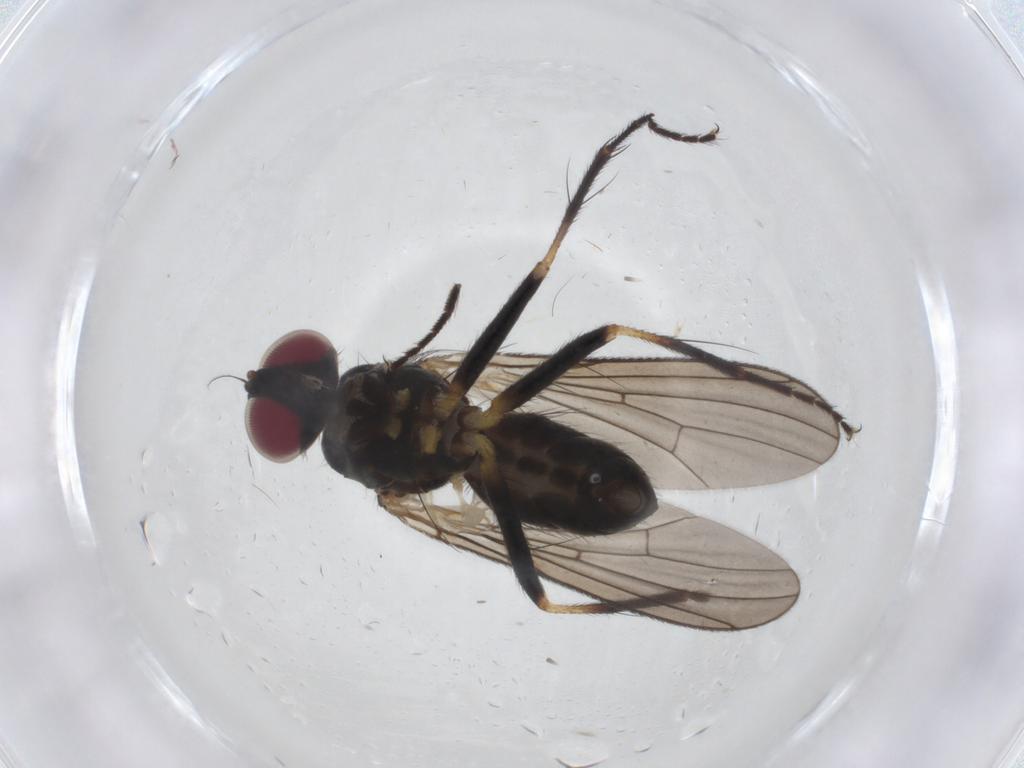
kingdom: Animalia
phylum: Arthropoda
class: Insecta
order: Diptera
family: Anthomyiidae
